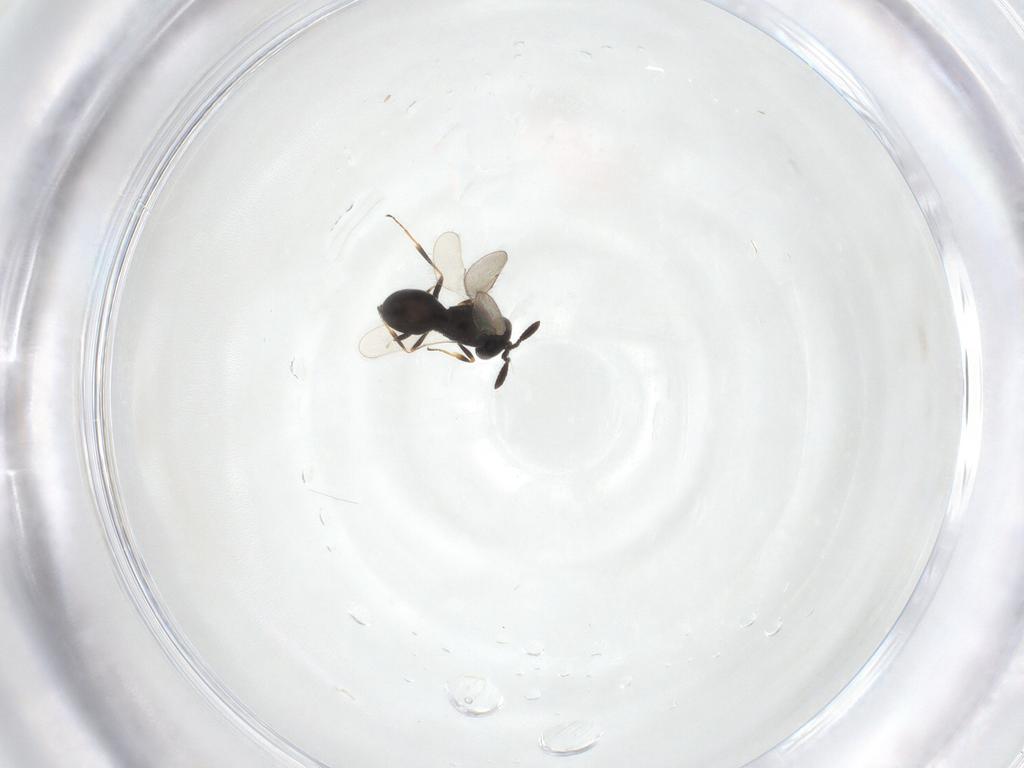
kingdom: Animalia
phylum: Arthropoda
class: Insecta
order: Hymenoptera
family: Scelionidae
